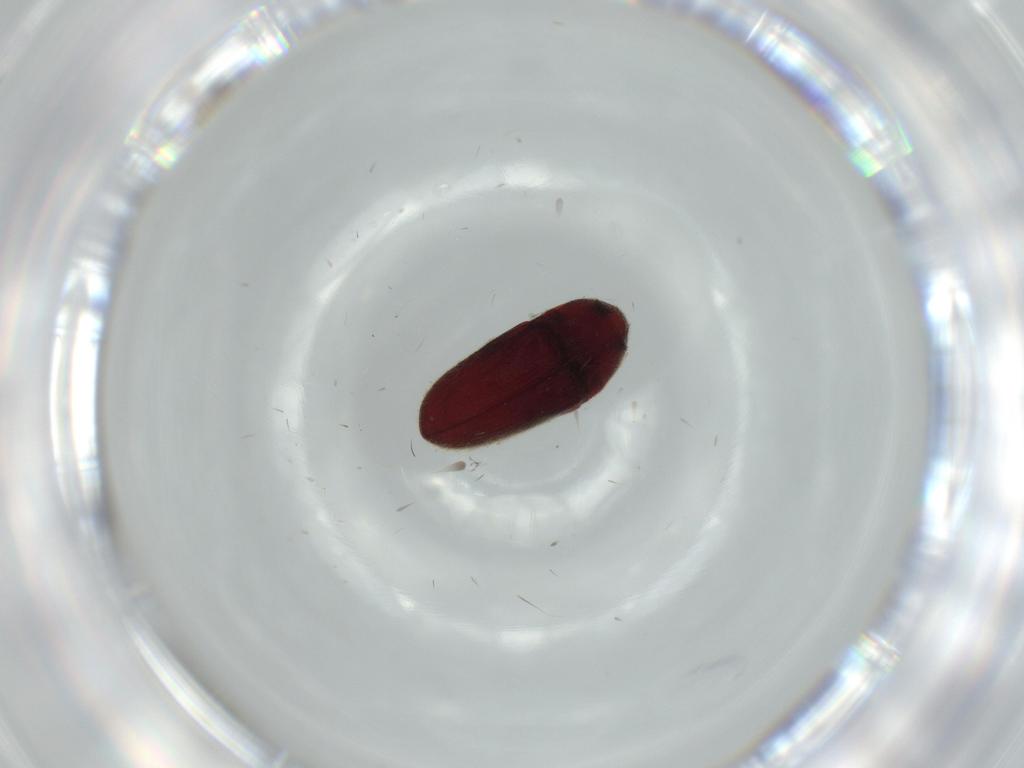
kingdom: Animalia
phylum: Arthropoda
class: Insecta
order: Coleoptera
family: Throscidae
